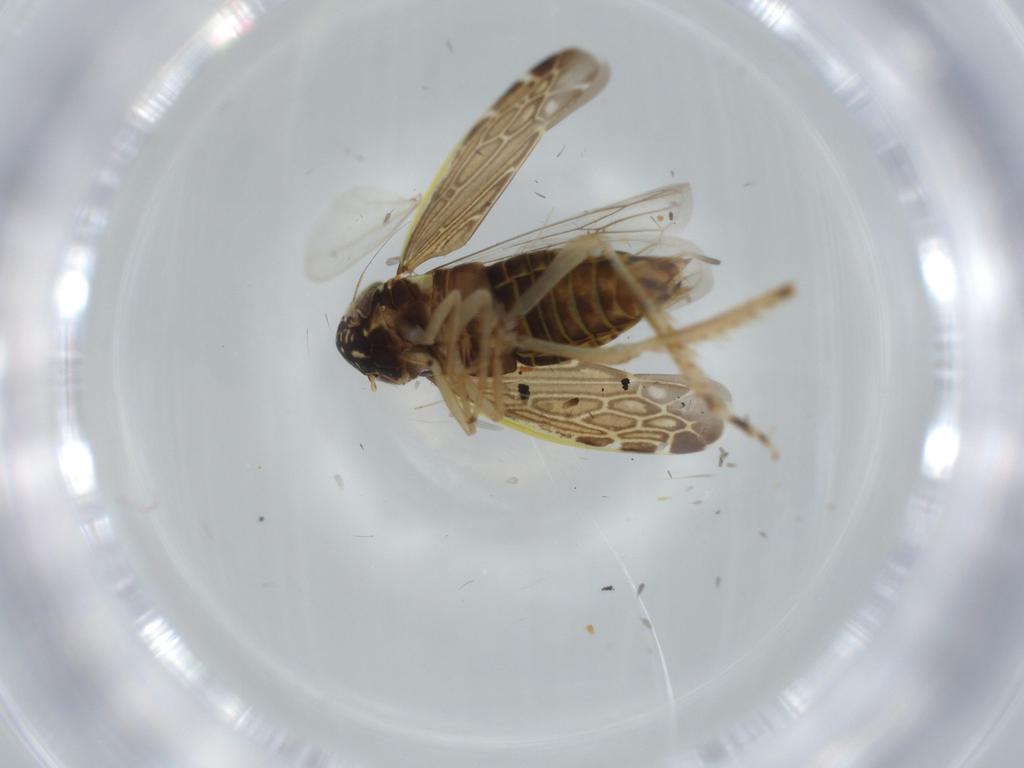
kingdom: Animalia
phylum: Arthropoda
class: Insecta
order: Hemiptera
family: Cicadellidae
